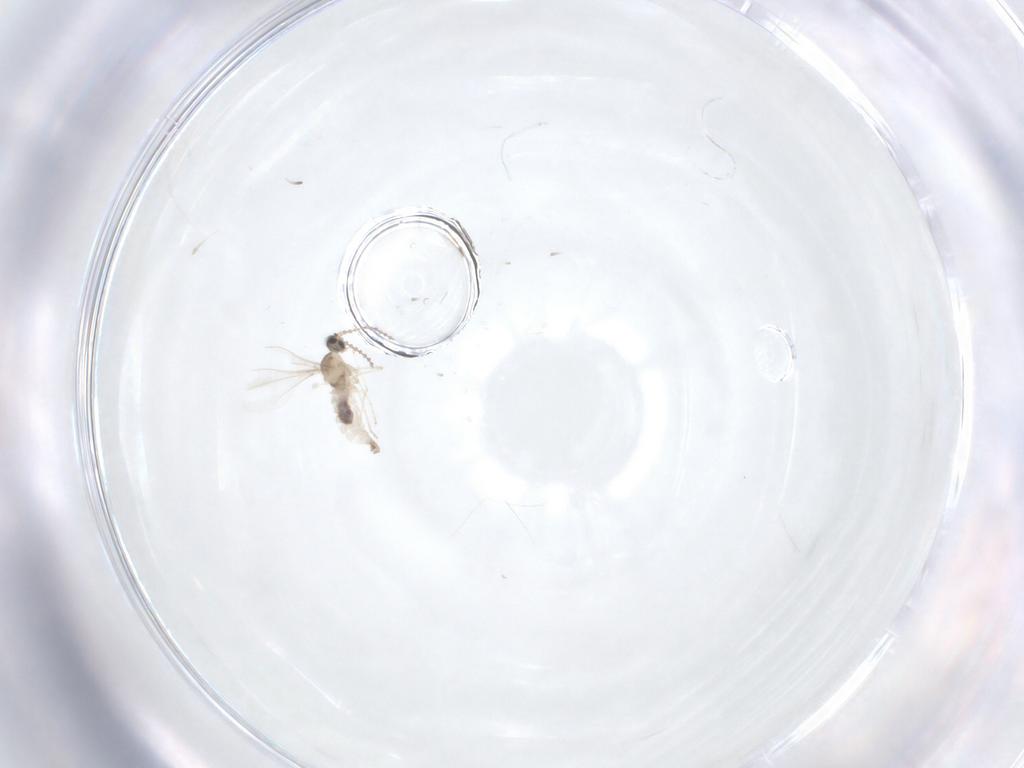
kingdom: Animalia
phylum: Arthropoda
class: Insecta
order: Diptera
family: Cecidomyiidae
